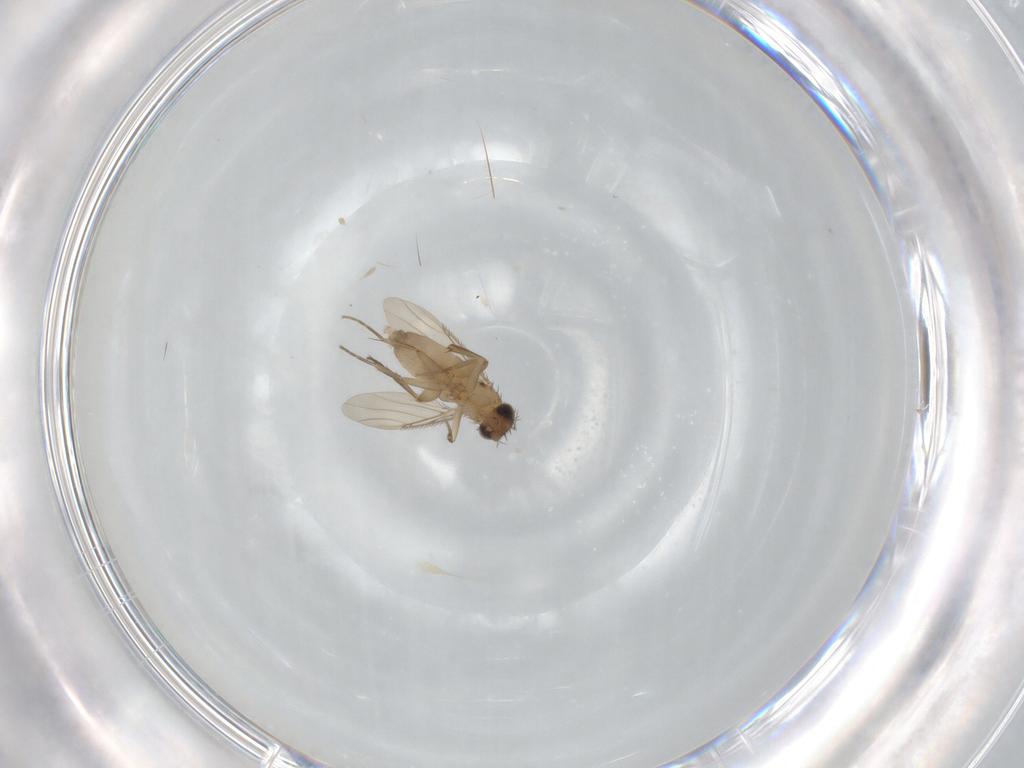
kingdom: Animalia
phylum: Arthropoda
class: Insecta
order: Diptera
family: Phoridae
